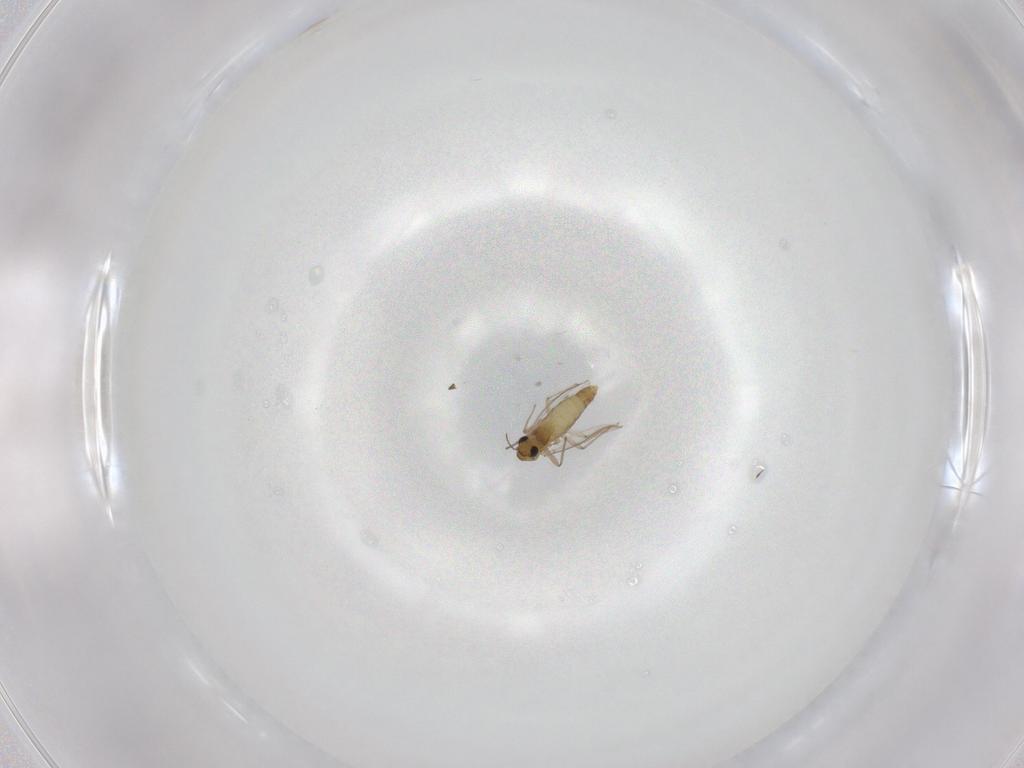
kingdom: Animalia
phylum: Arthropoda
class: Insecta
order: Diptera
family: Chironomidae
